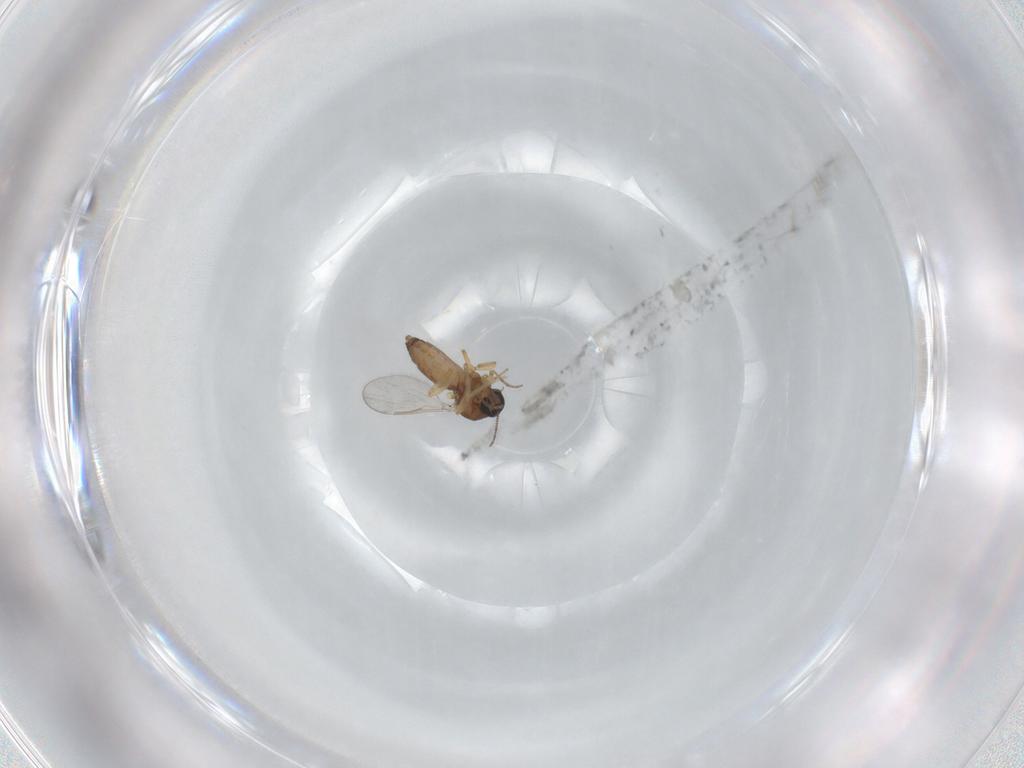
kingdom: Animalia
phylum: Arthropoda
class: Insecta
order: Diptera
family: Ceratopogonidae
